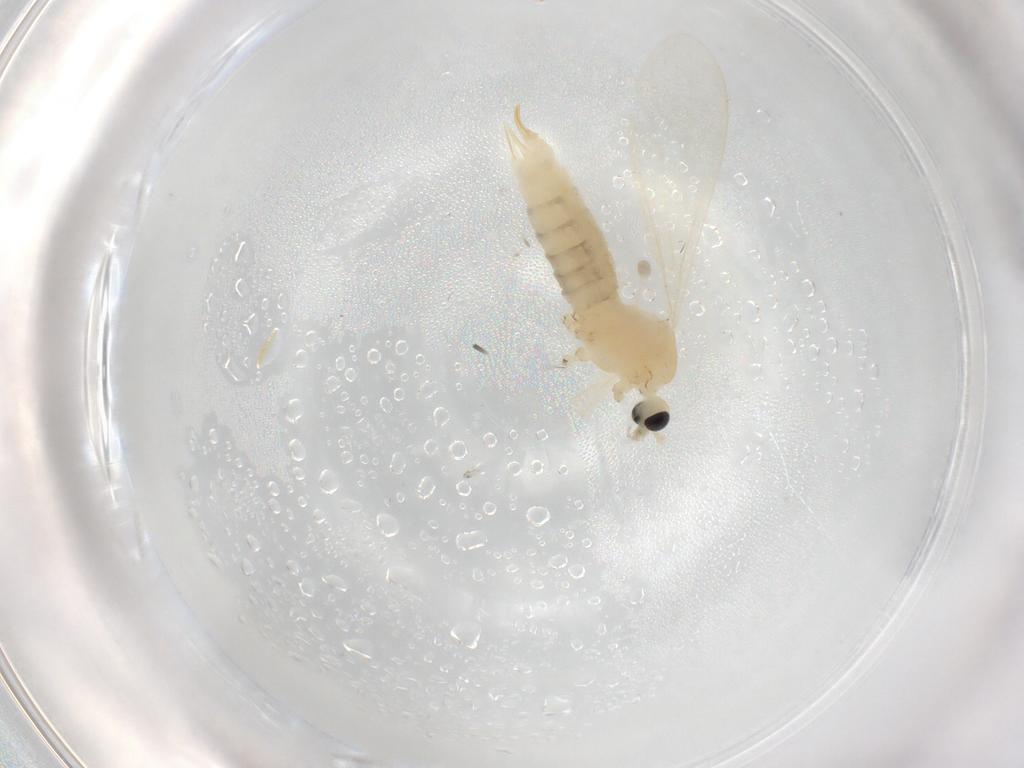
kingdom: Animalia
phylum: Arthropoda
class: Insecta
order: Diptera
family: Limoniidae
